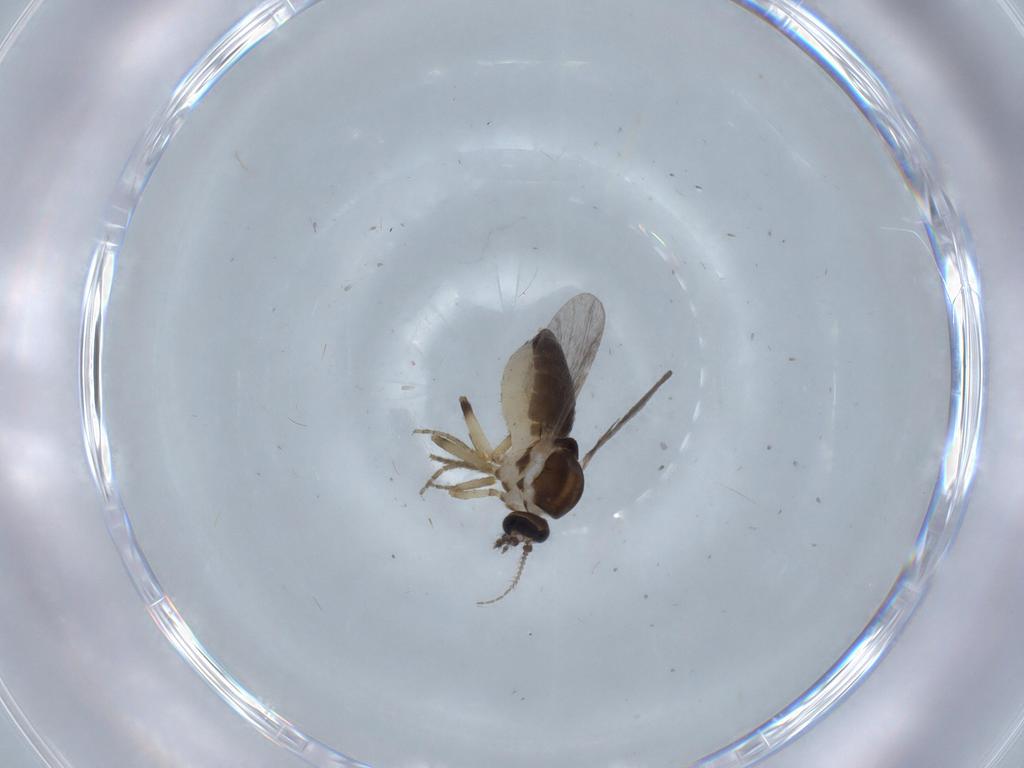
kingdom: Animalia
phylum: Arthropoda
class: Insecta
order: Diptera
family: Ceratopogonidae
